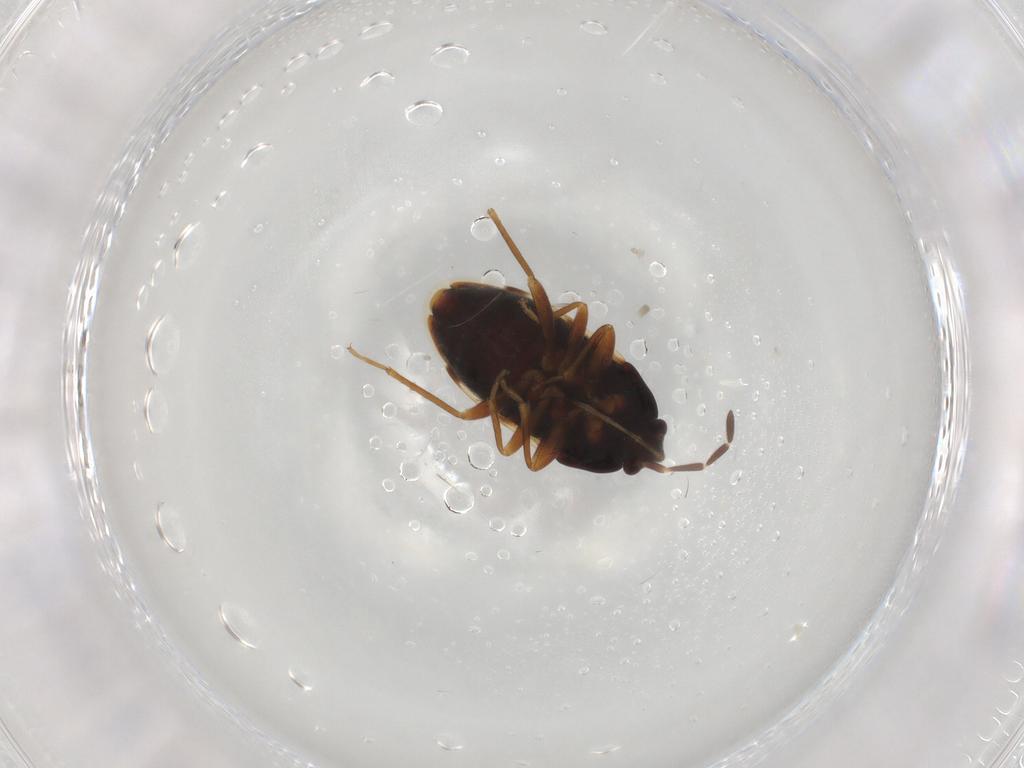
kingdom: Animalia
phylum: Arthropoda
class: Insecta
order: Hemiptera
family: Rhyparochromidae
